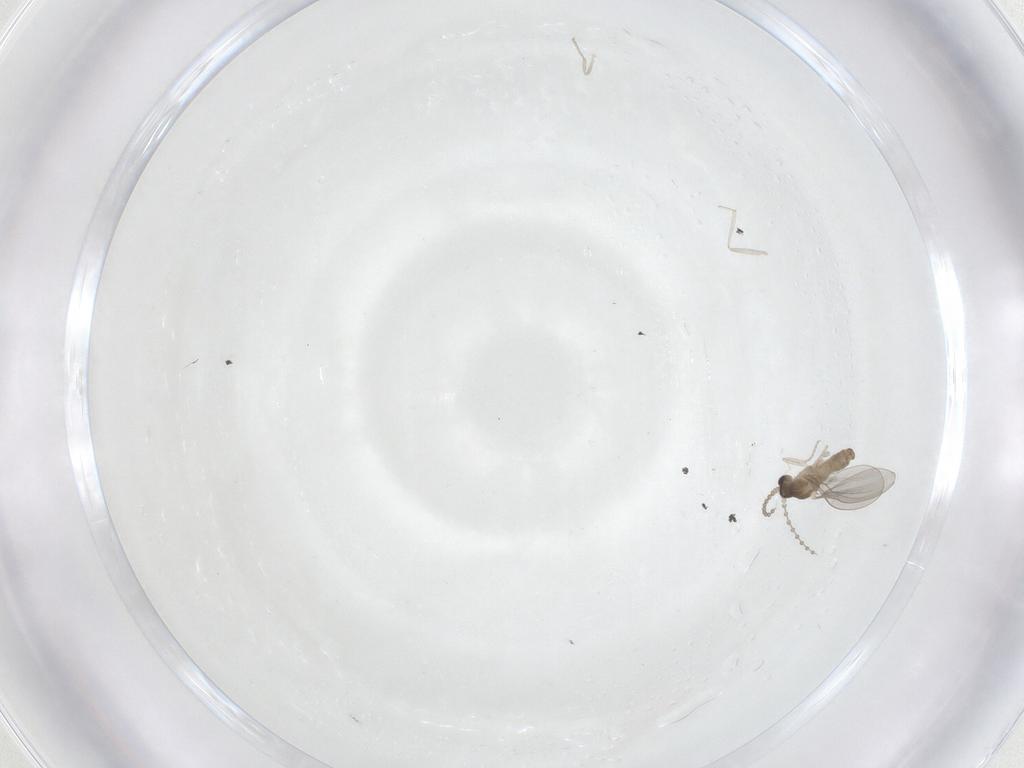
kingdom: Animalia
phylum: Arthropoda
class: Insecta
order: Diptera
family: Cecidomyiidae
